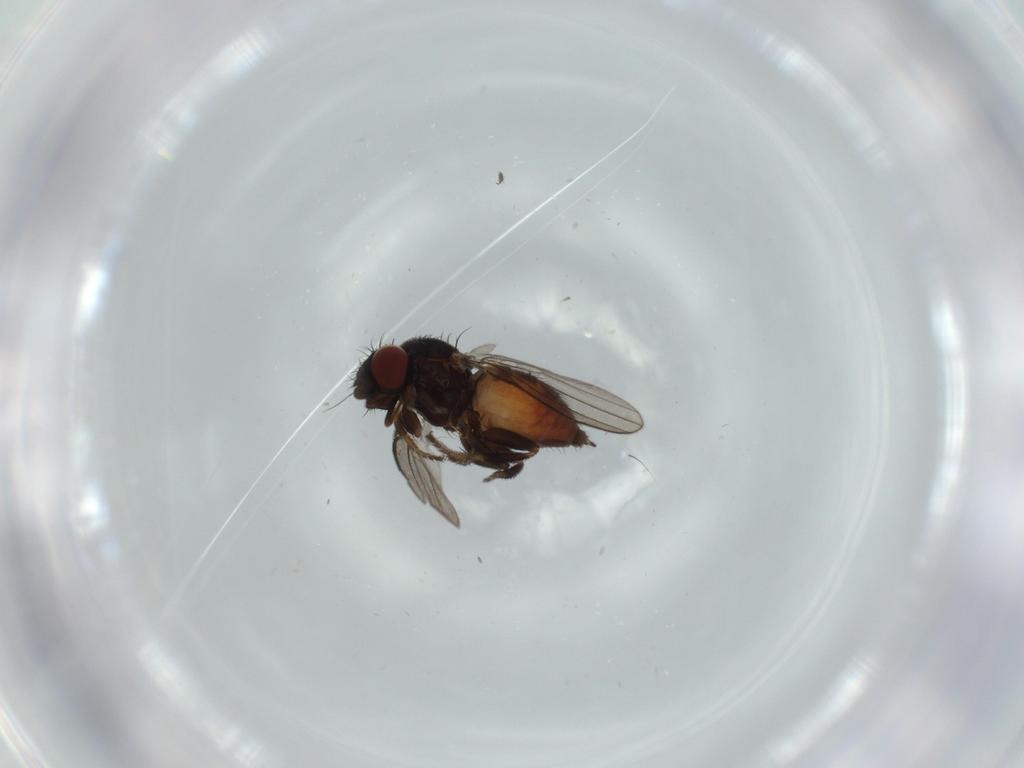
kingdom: Animalia
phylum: Arthropoda
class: Insecta
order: Diptera
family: Milichiidae
